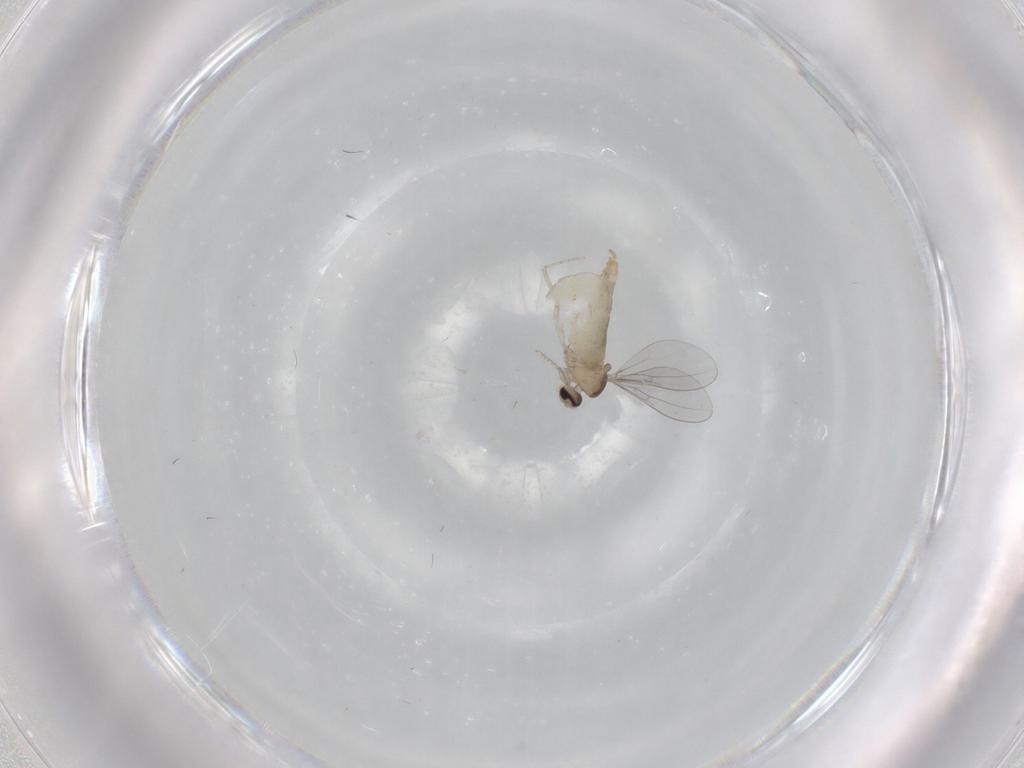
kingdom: Animalia
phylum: Arthropoda
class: Insecta
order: Diptera
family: Cecidomyiidae
